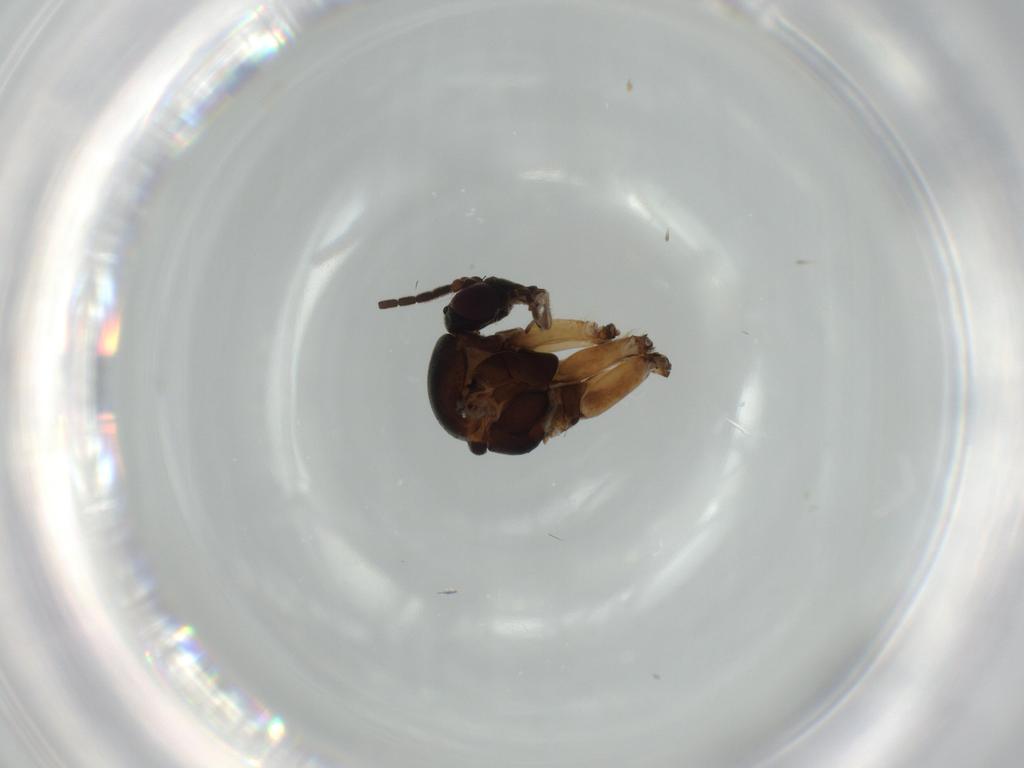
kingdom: Animalia
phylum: Arthropoda
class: Insecta
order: Diptera
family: Mycetophilidae
